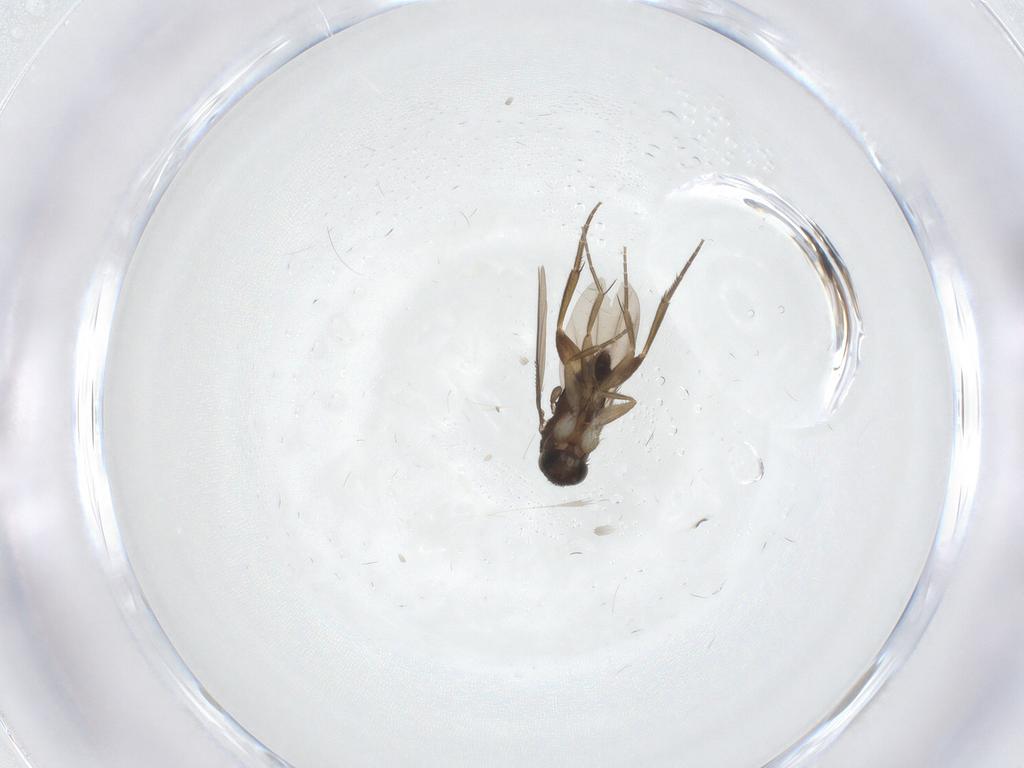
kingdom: Animalia
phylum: Arthropoda
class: Insecta
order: Diptera
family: Phoridae
